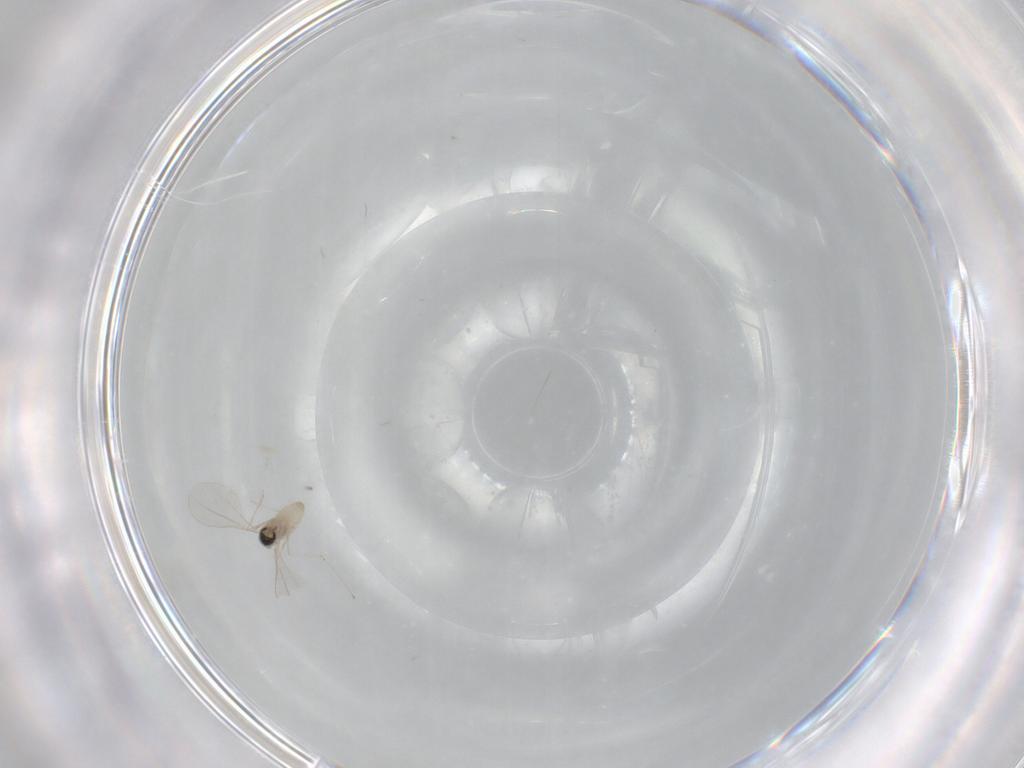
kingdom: Animalia
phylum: Arthropoda
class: Insecta
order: Diptera
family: Cecidomyiidae
